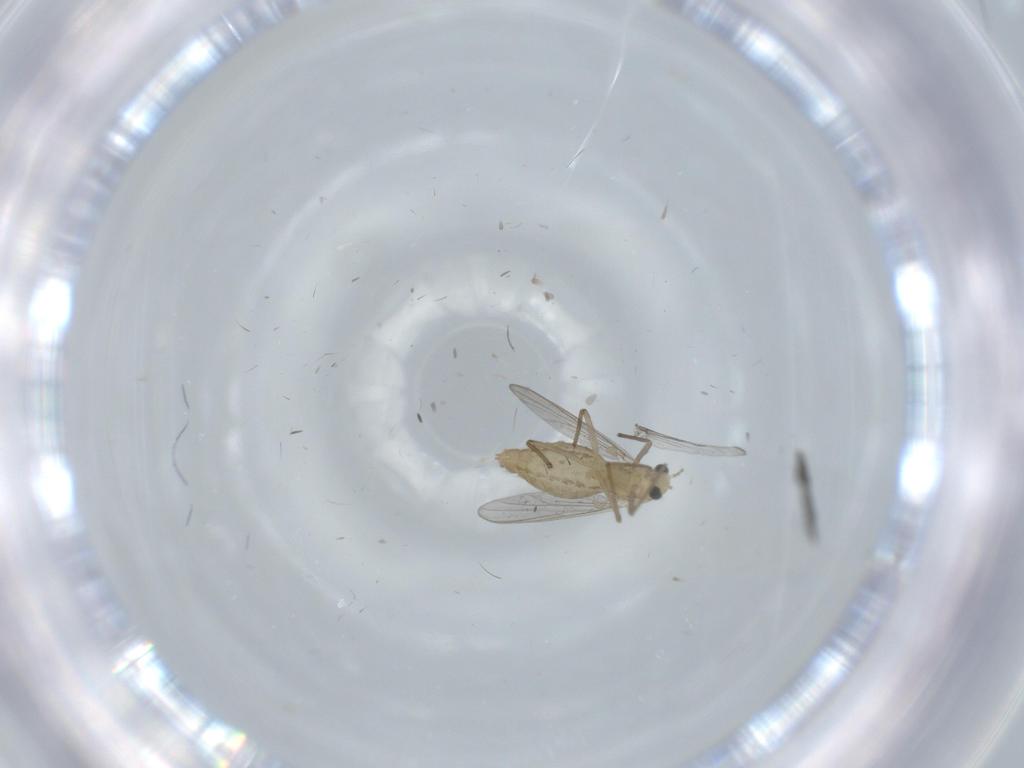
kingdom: Animalia
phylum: Arthropoda
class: Insecta
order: Diptera
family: Chironomidae
